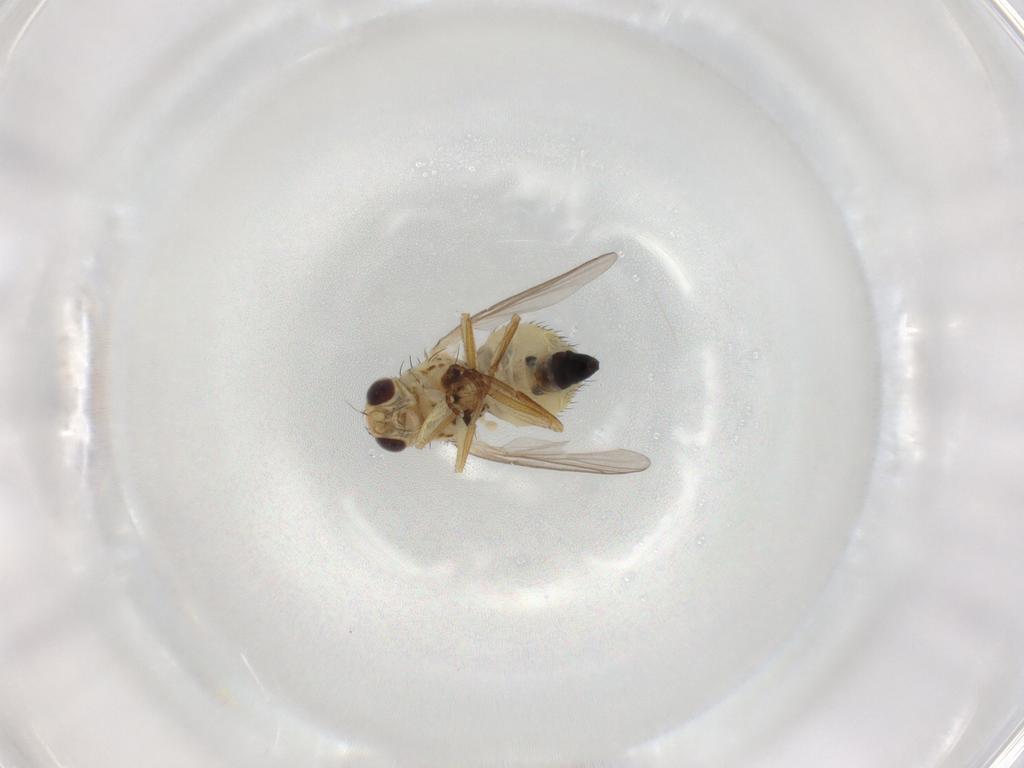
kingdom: Animalia
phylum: Arthropoda
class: Insecta
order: Diptera
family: Agromyzidae
